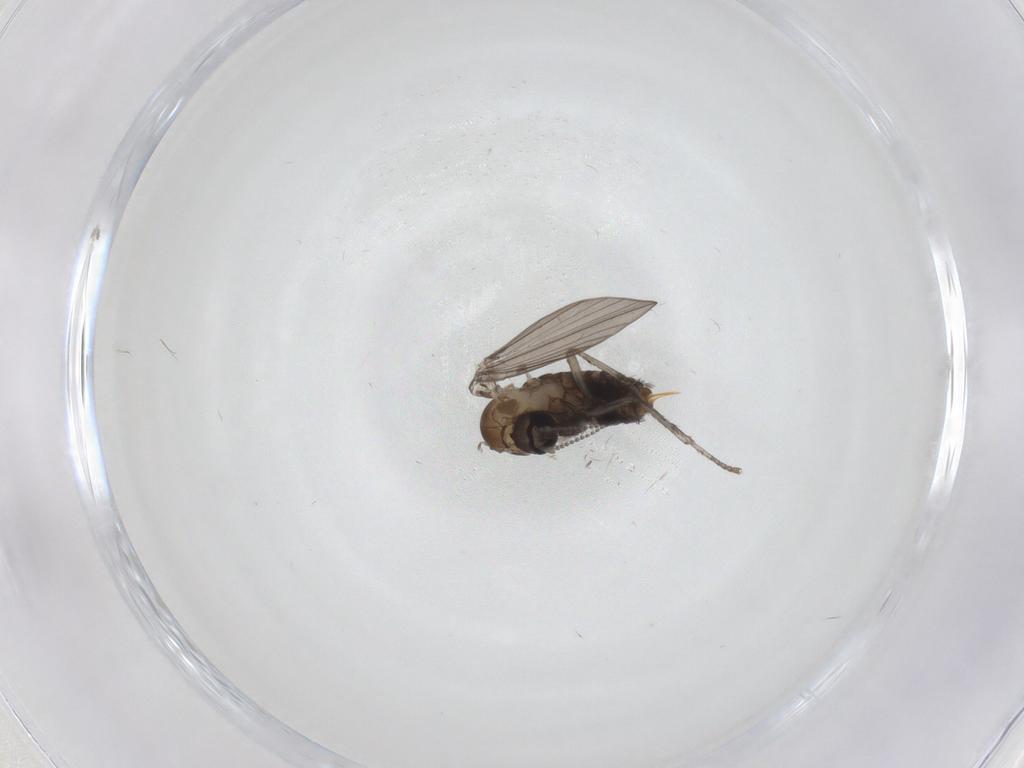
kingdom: Animalia
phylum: Arthropoda
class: Insecta
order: Diptera
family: Psychodidae
